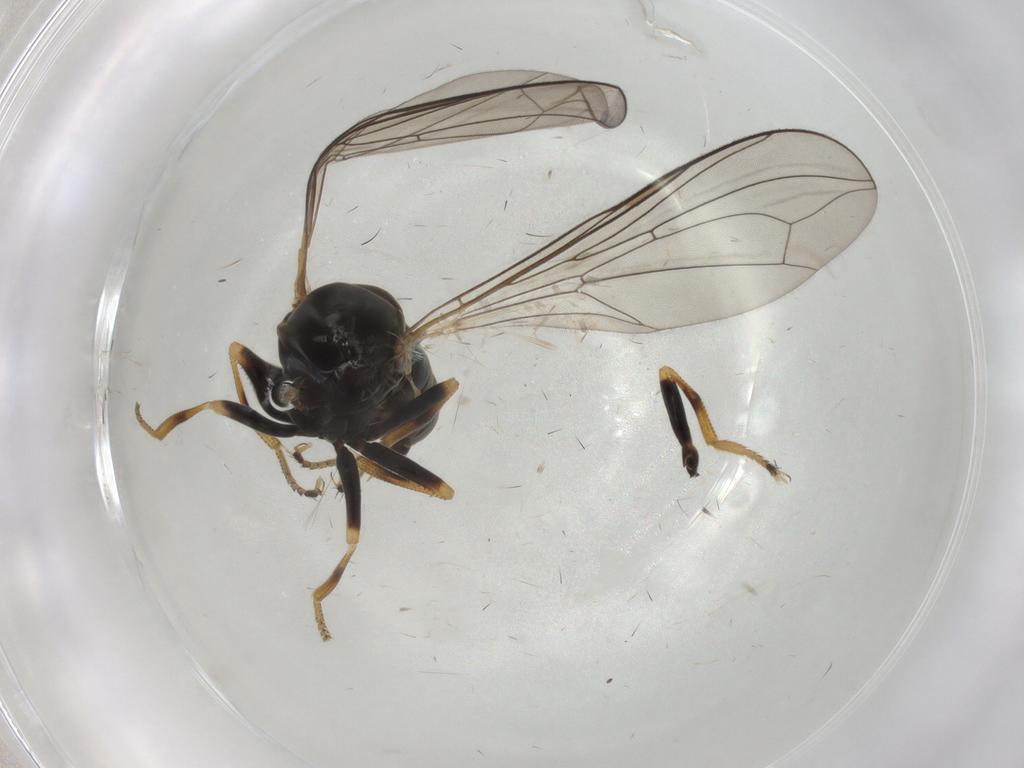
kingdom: Animalia
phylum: Arthropoda
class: Insecta
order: Diptera
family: Pipunculidae
